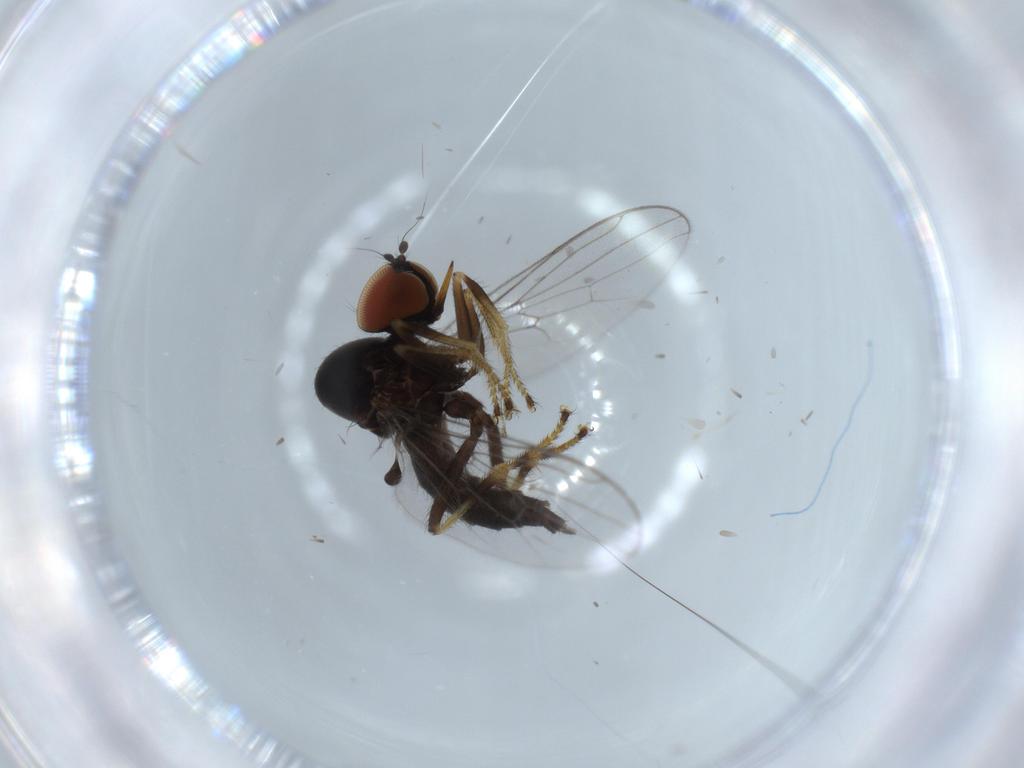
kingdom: Animalia
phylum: Arthropoda
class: Insecta
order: Diptera
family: Hybotidae
